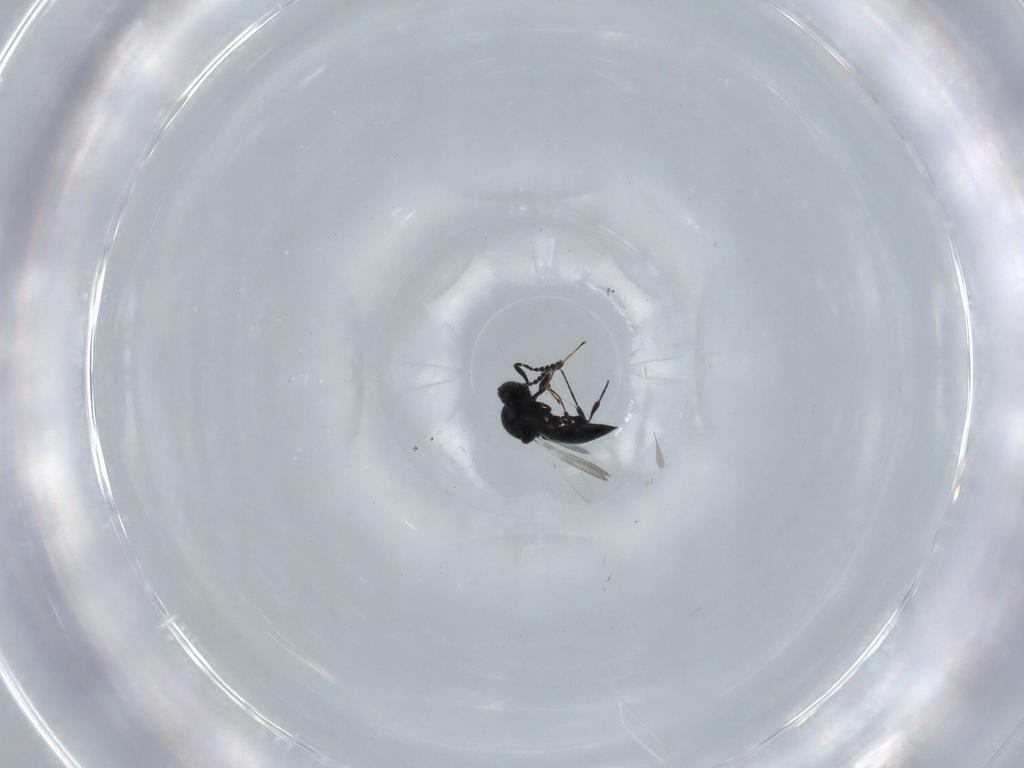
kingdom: Animalia
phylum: Arthropoda
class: Insecta
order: Hymenoptera
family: Platygastridae
